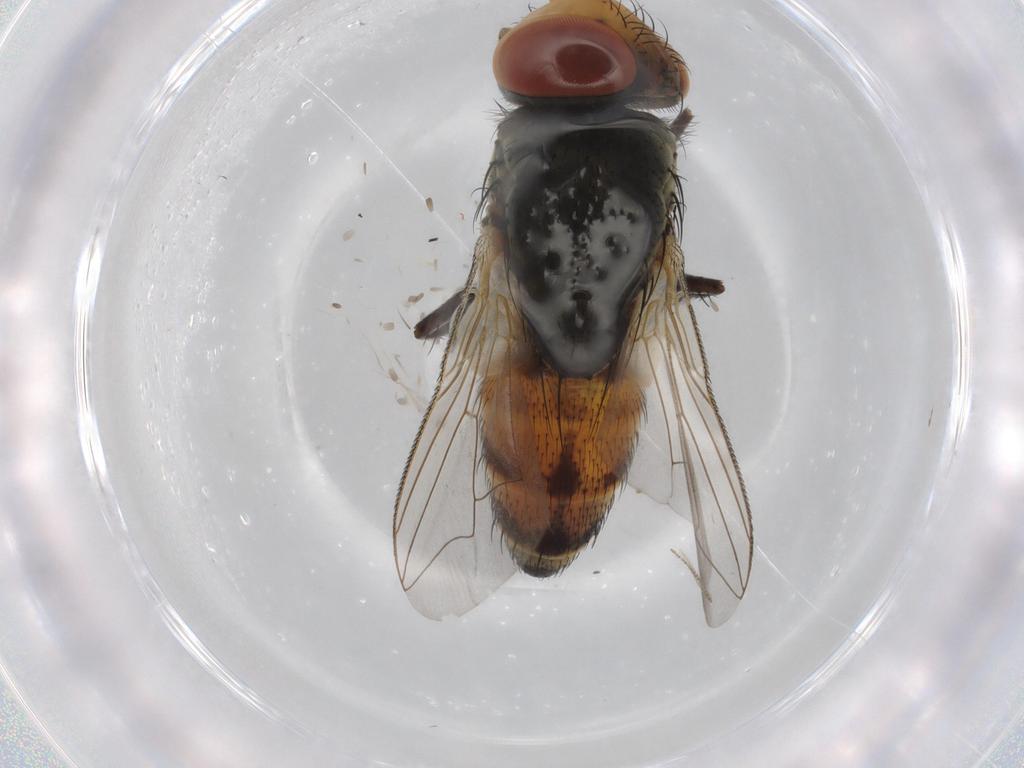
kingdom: Animalia
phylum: Arthropoda
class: Insecta
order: Diptera
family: Sarcophagidae
